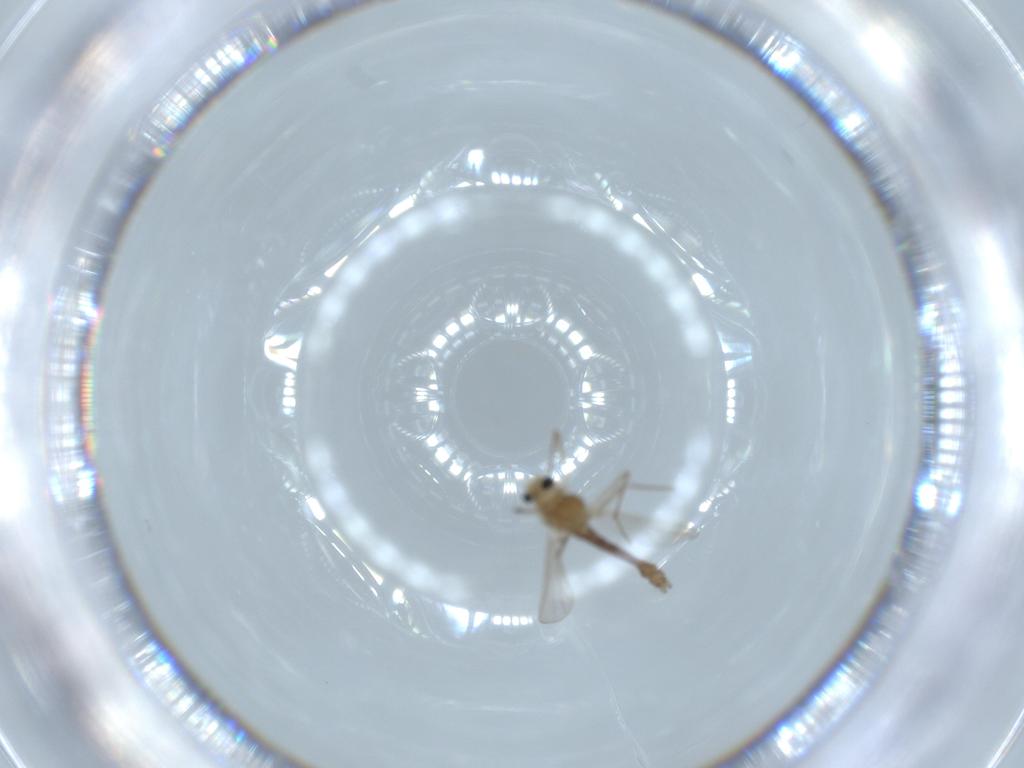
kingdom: Animalia
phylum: Arthropoda
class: Insecta
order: Diptera
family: Chironomidae
